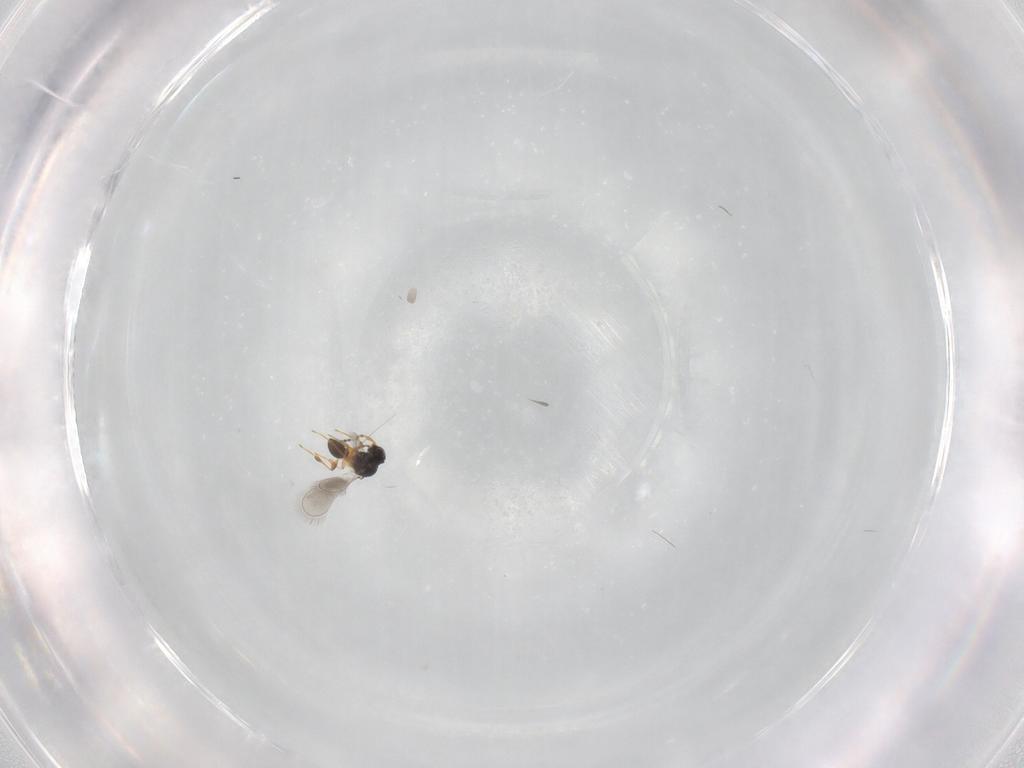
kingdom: Animalia
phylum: Arthropoda
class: Insecta
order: Hymenoptera
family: Platygastridae
